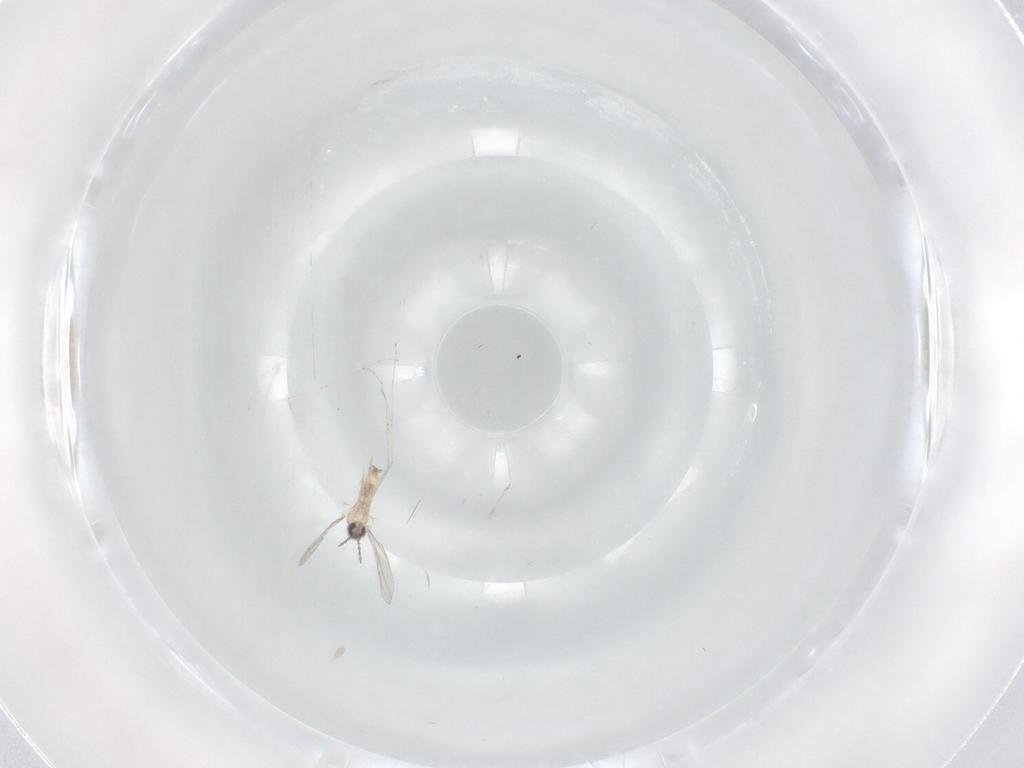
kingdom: Animalia
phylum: Arthropoda
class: Insecta
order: Diptera
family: Cecidomyiidae
